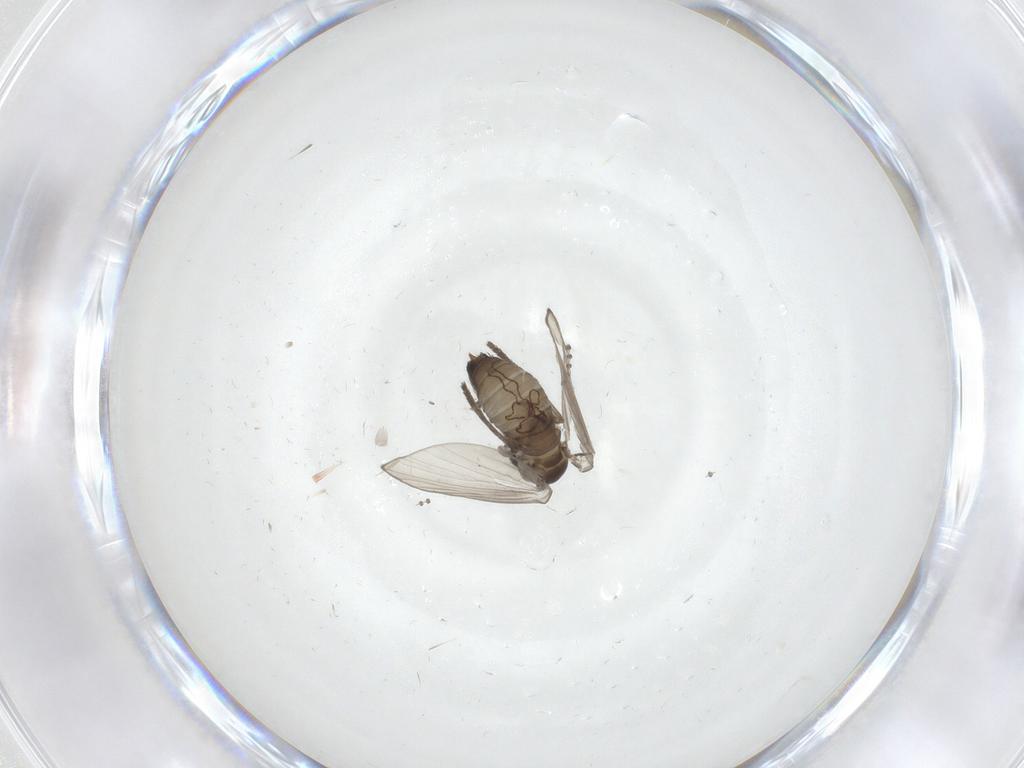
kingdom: Animalia
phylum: Arthropoda
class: Insecta
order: Diptera
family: Psychodidae
